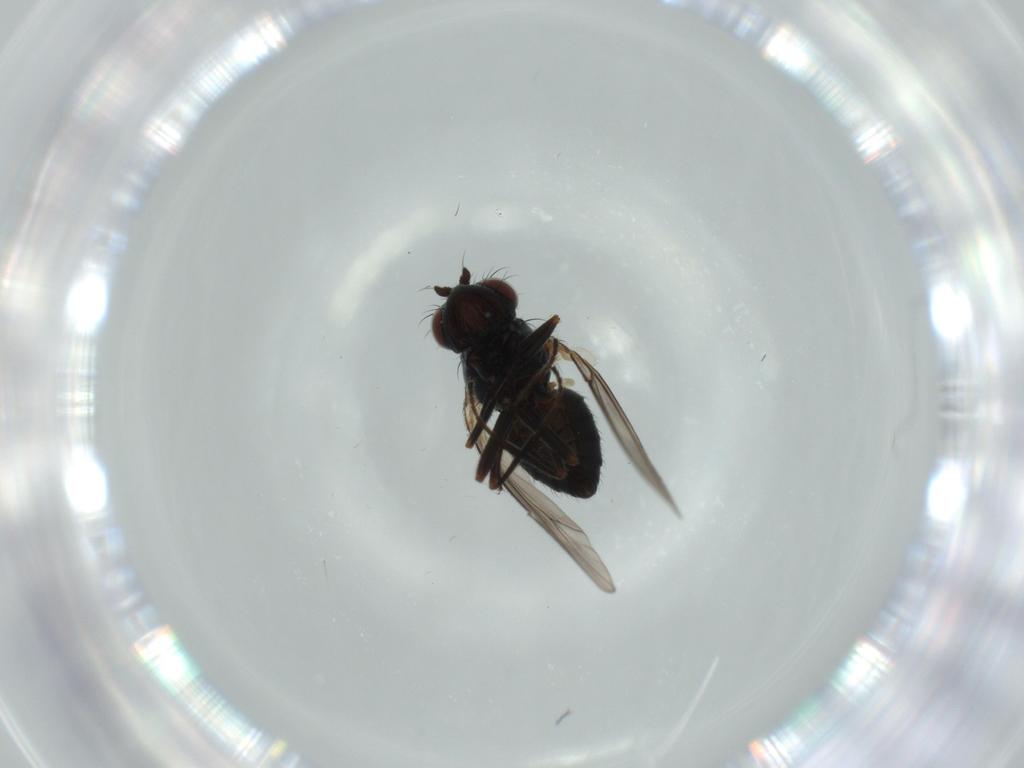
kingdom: Animalia
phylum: Arthropoda
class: Insecta
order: Diptera
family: Ephydridae
